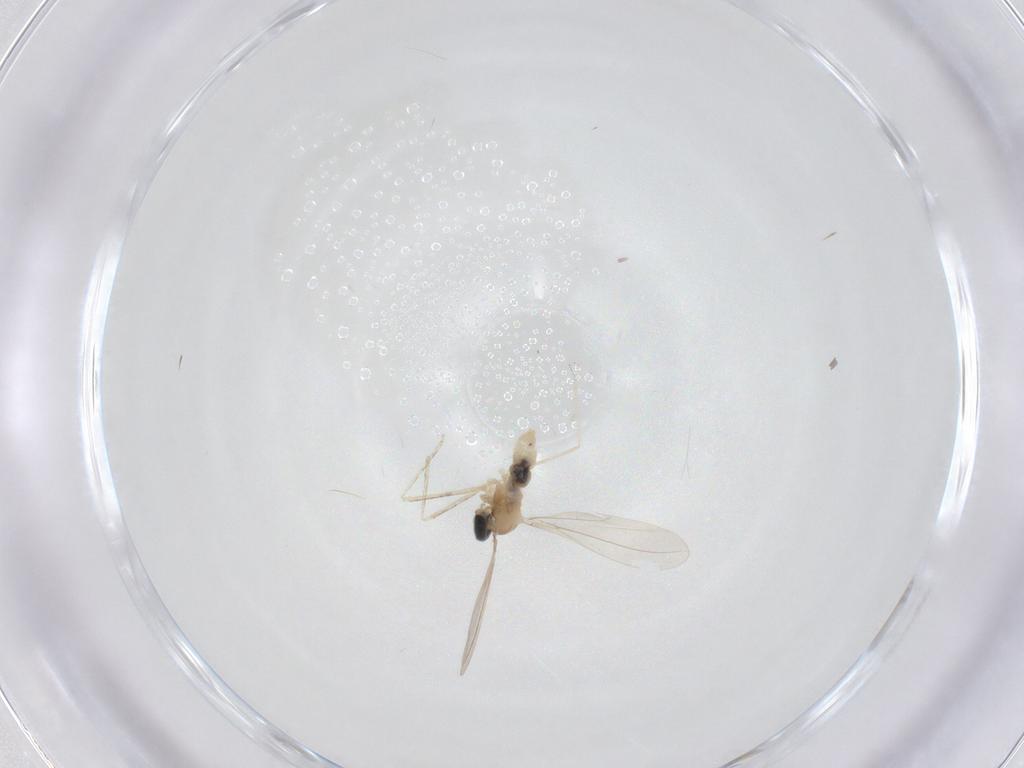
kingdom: Animalia
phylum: Arthropoda
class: Insecta
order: Diptera
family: Cecidomyiidae
